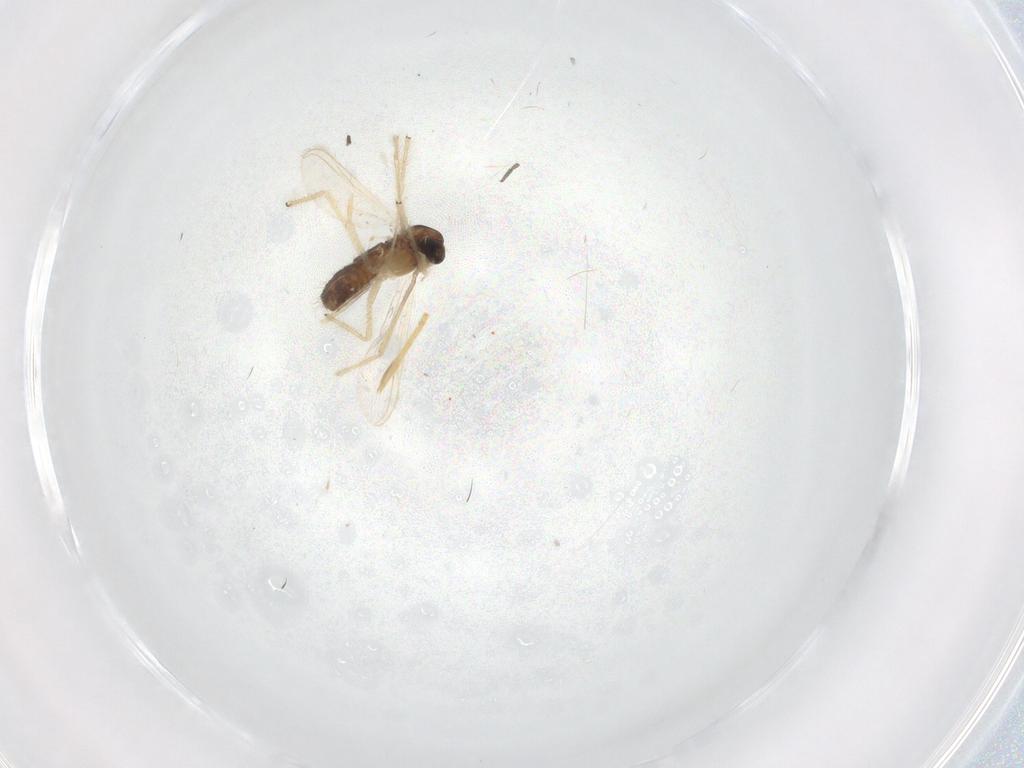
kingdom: Animalia
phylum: Arthropoda
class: Insecta
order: Diptera
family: Chironomidae
